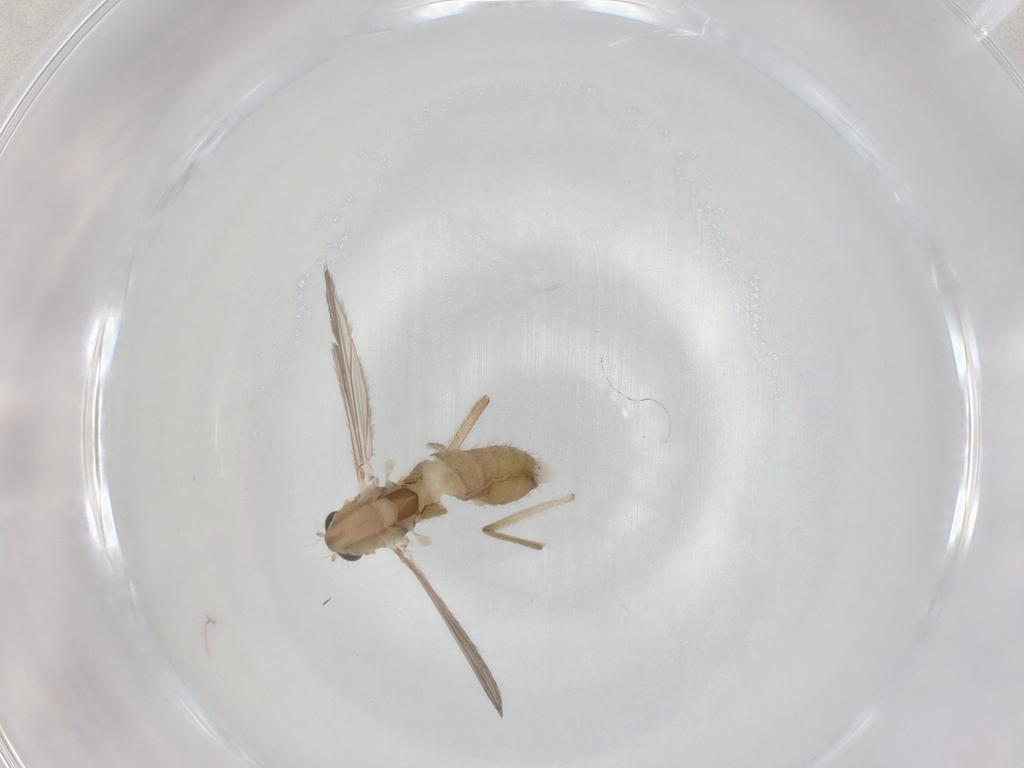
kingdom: Animalia
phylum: Arthropoda
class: Insecta
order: Diptera
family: Chironomidae
